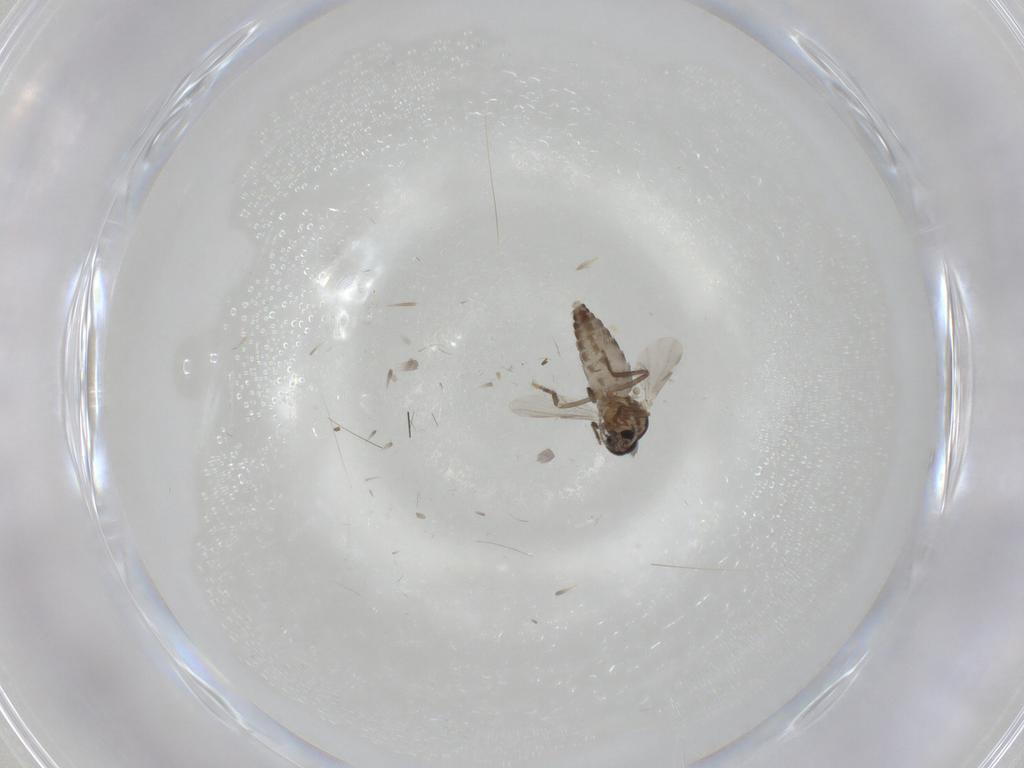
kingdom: Animalia
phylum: Arthropoda
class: Insecta
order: Diptera
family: Ceratopogonidae
